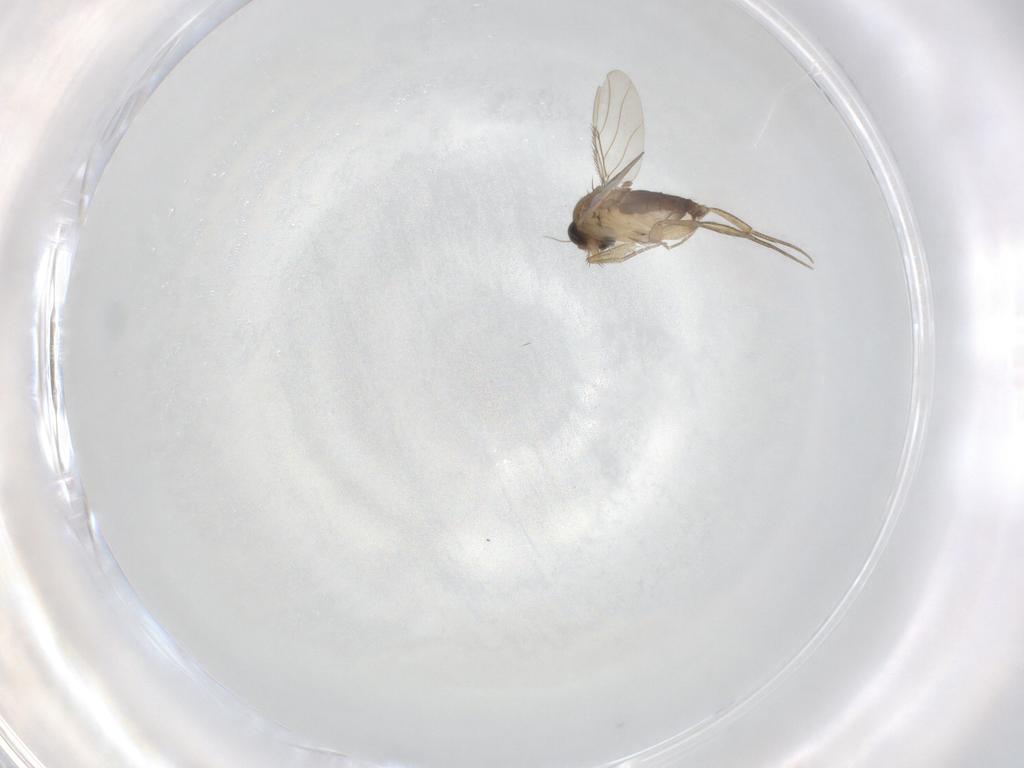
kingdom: Animalia
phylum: Arthropoda
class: Insecta
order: Diptera
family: Phoridae
